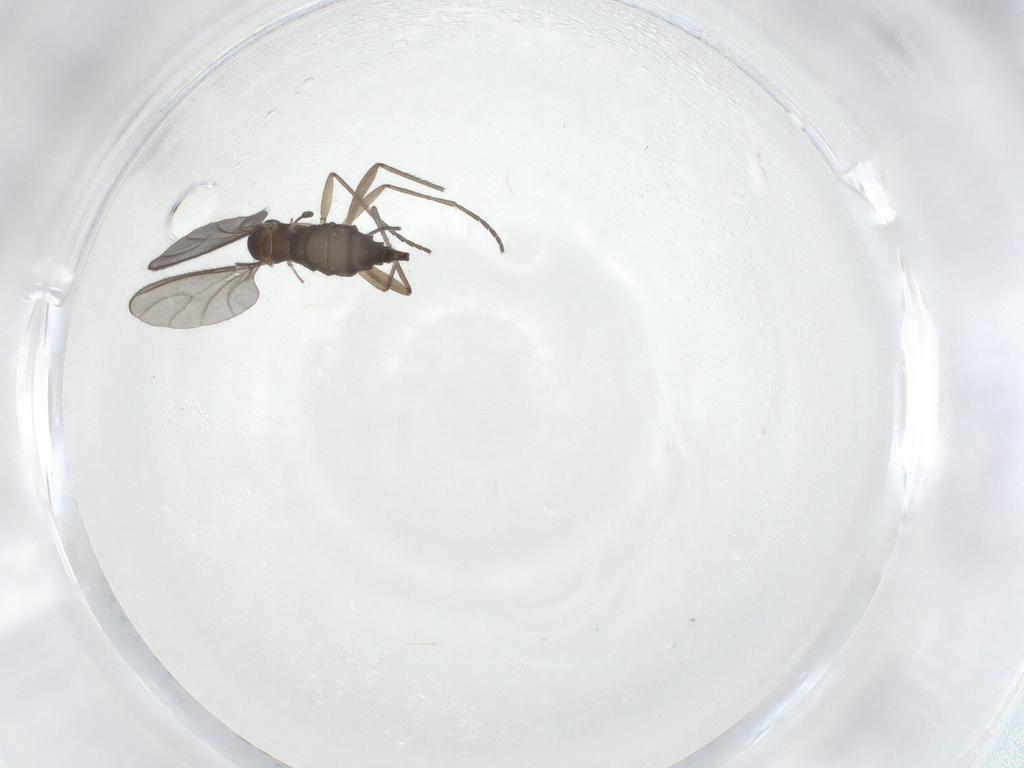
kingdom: Animalia
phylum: Arthropoda
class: Insecta
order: Diptera
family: Sciaridae
